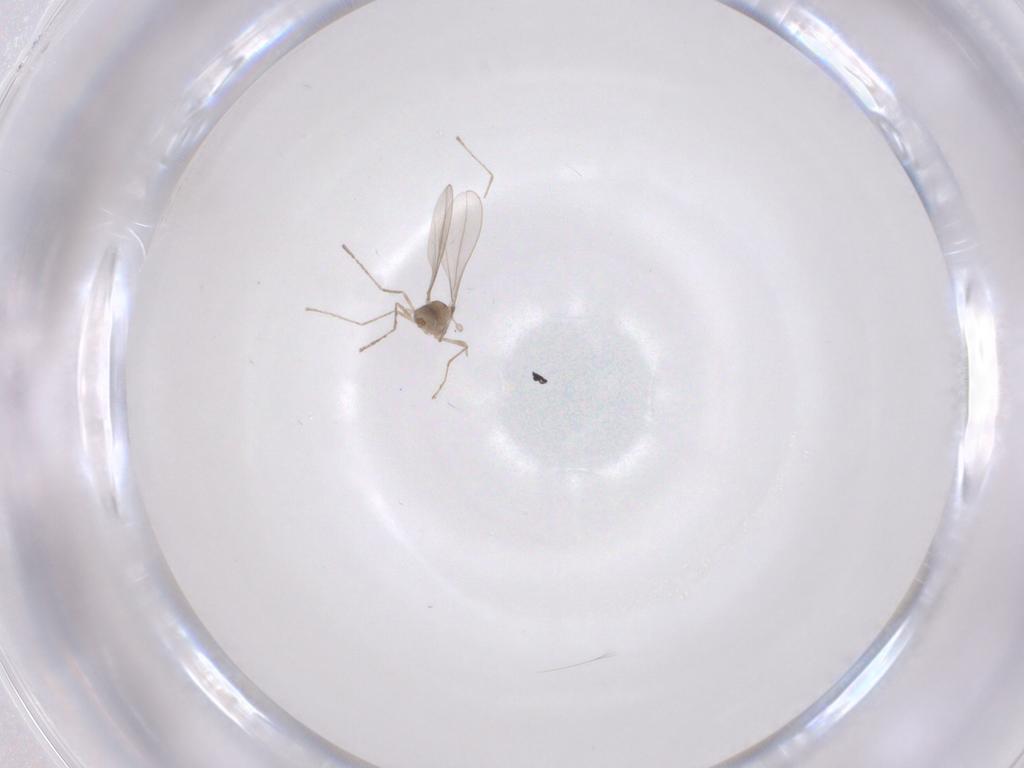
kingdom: Animalia
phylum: Arthropoda
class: Insecta
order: Diptera
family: Cecidomyiidae
